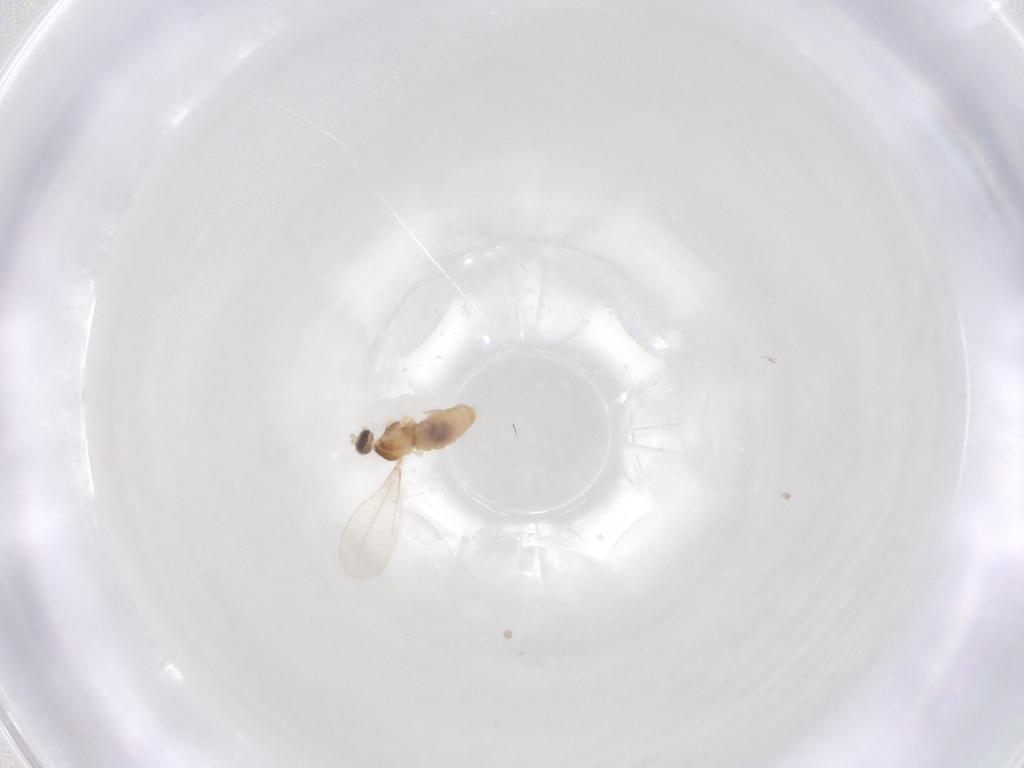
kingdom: Animalia
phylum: Arthropoda
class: Insecta
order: Diptera
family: Cecidomyiidae
